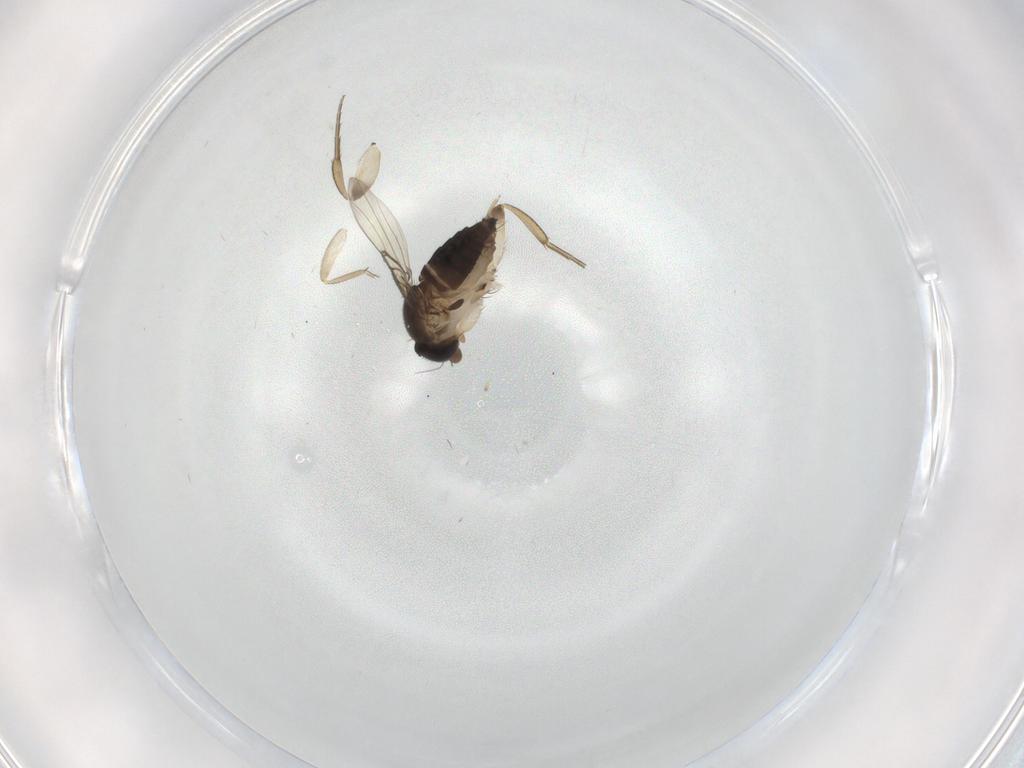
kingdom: Animalia
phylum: Arthropoda
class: Insecta
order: Diptera
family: Phoridae
